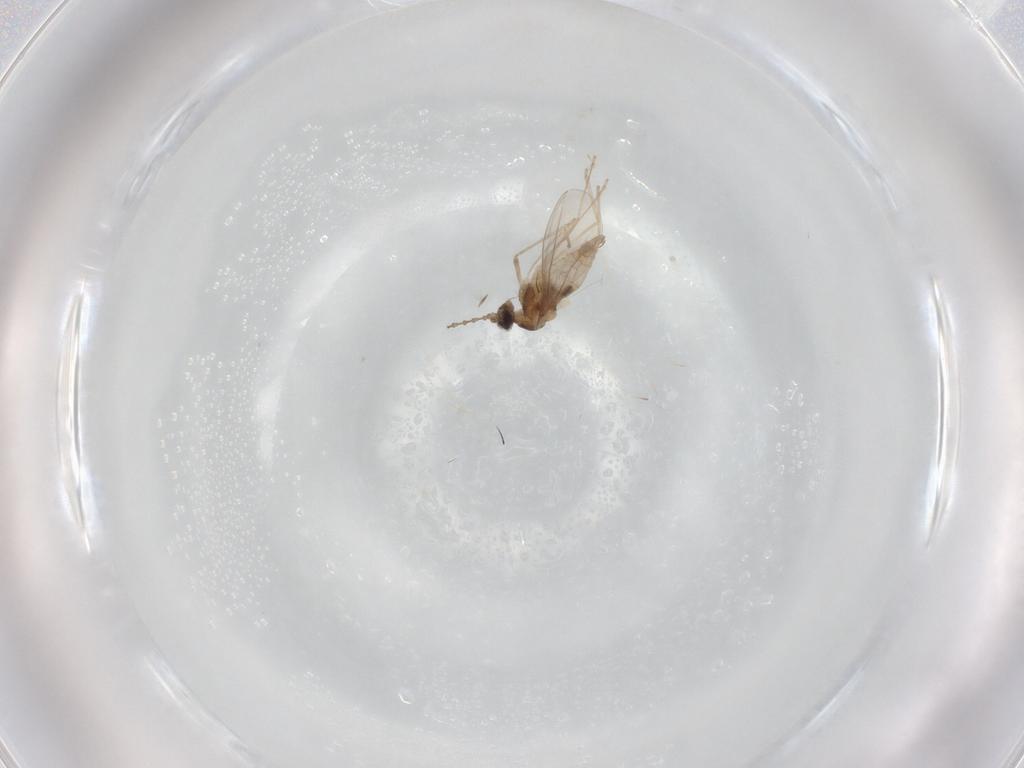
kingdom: Animalia
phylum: Arthropoda
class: Insecta
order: Diptera
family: Cecidomyiidae
